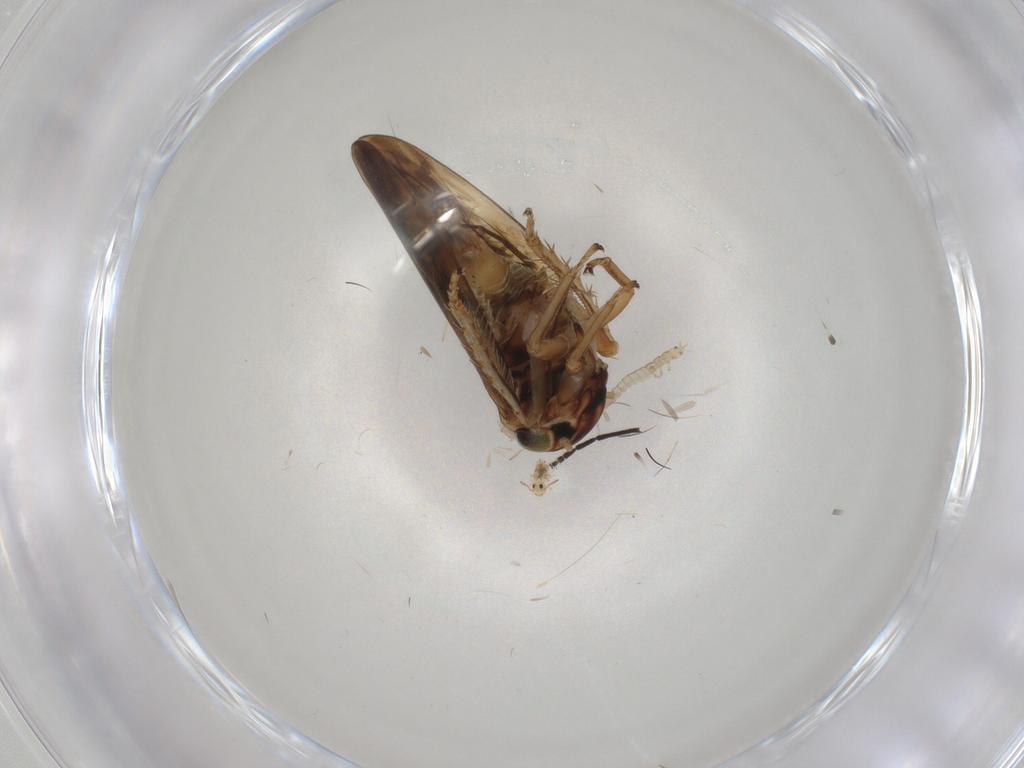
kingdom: Animalia
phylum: Arthropoda
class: Insecta
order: Hemiptera
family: Cicadellidae
